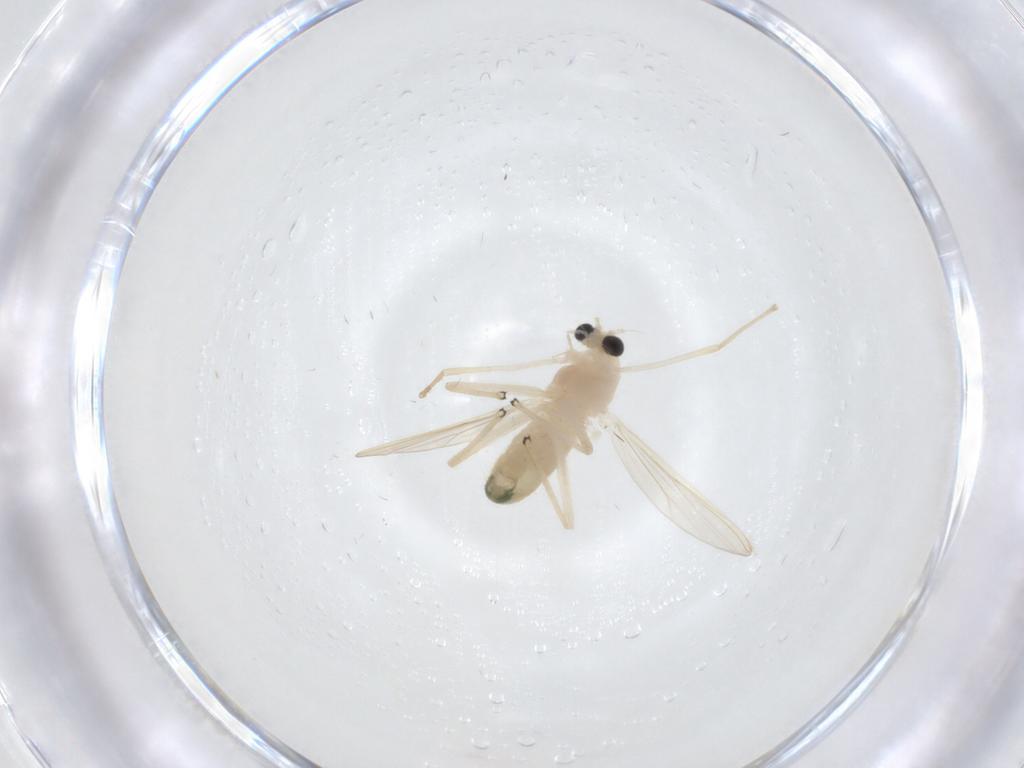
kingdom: Animalia
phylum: Arthropoda
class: Insecta
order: Diptera
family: Chironomidae
